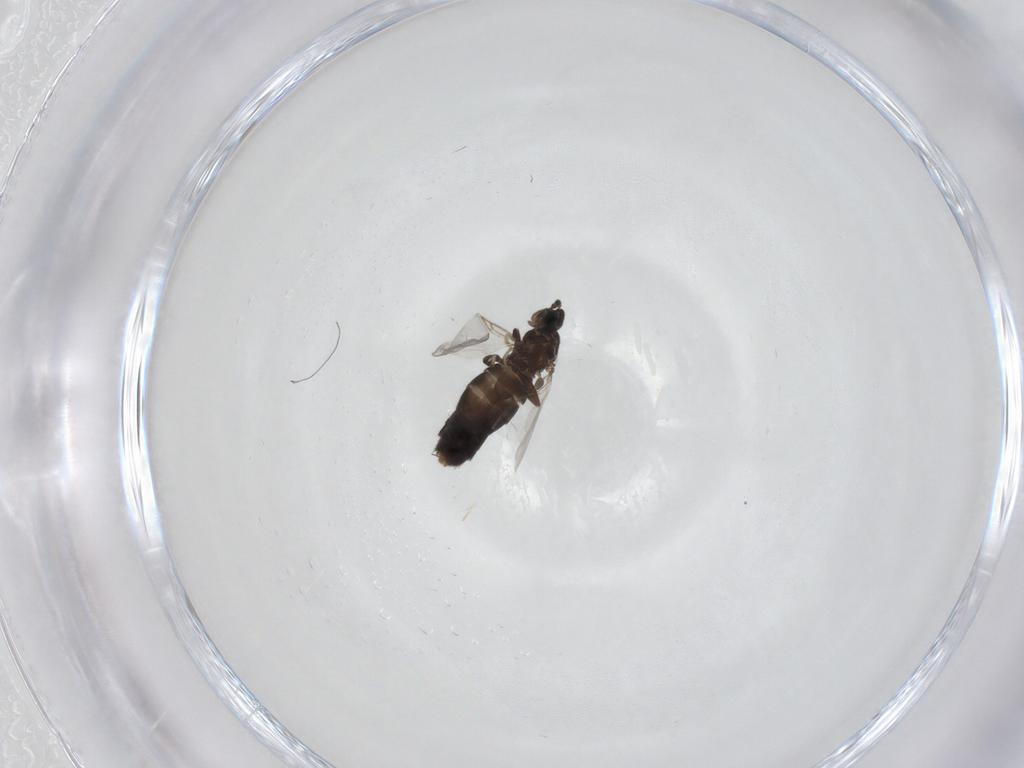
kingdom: Animalia
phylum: Arthropoda
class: Insecta
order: Diptera
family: Scatopsidae
